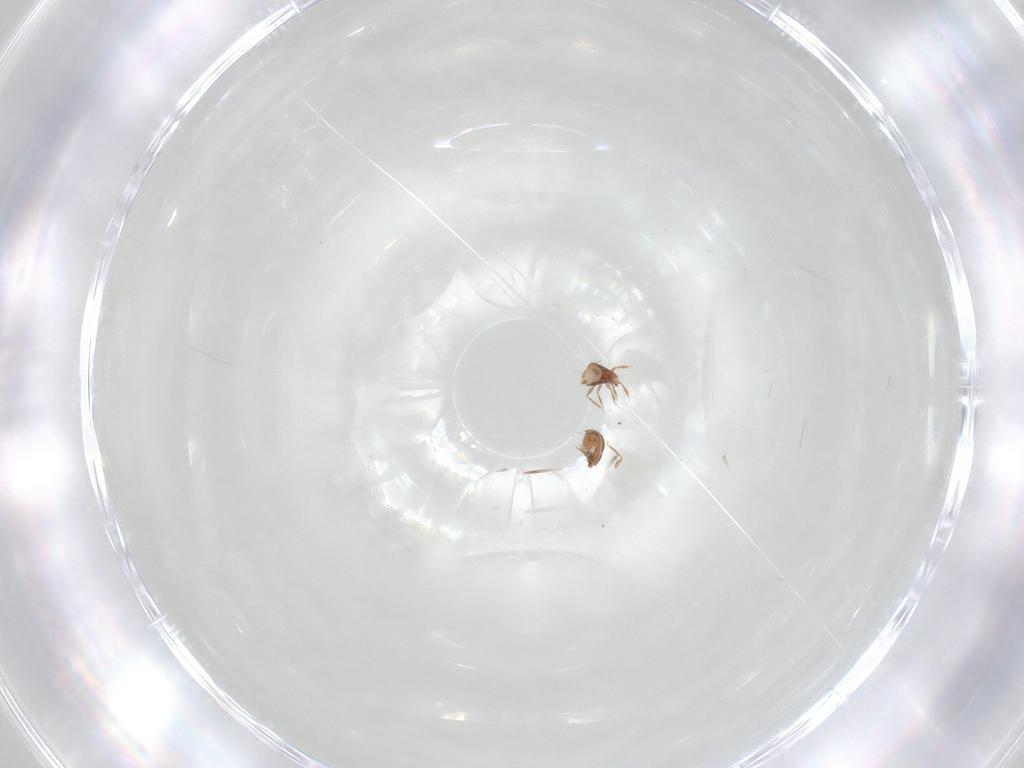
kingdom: Animalia
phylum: Arthropoda
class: Arachnida
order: Sarcoptiformes
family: Oribatulidae
